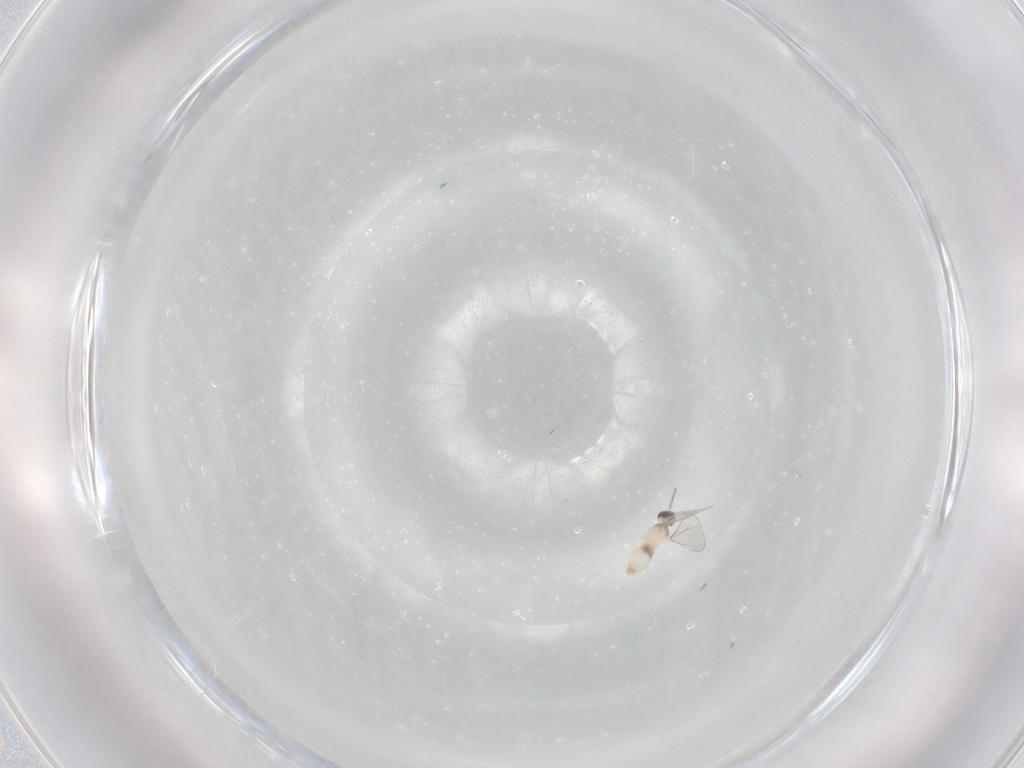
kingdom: Animalia
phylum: Arthropoda
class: Insecta
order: Diptera
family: Cecidomyiidae
